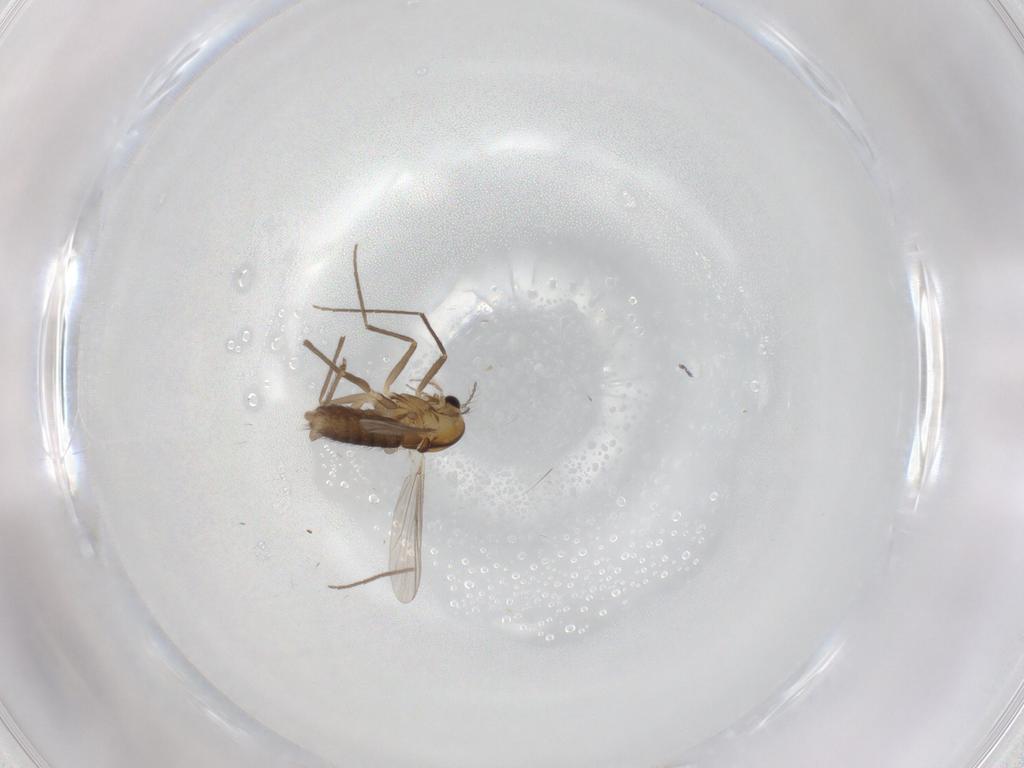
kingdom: Animalia
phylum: Arthropoda
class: Insecta
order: Diptera
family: Chironomidae
